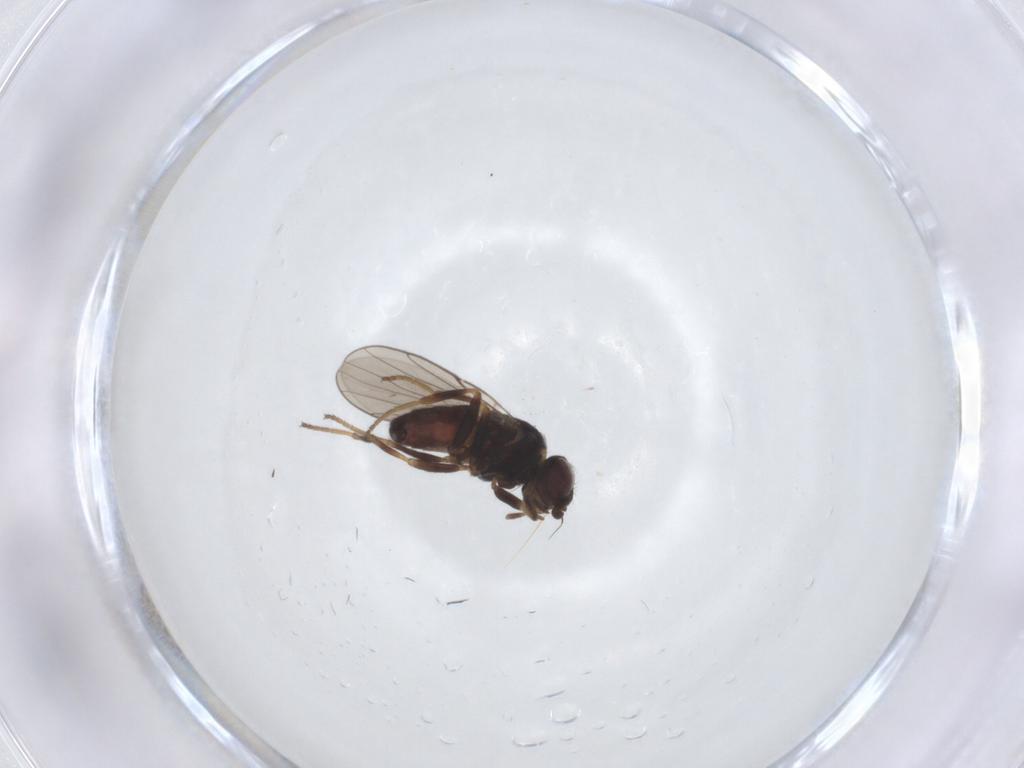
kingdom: Animalia
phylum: Arthropoda
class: Insecta
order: Diptera
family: Chloropidae
